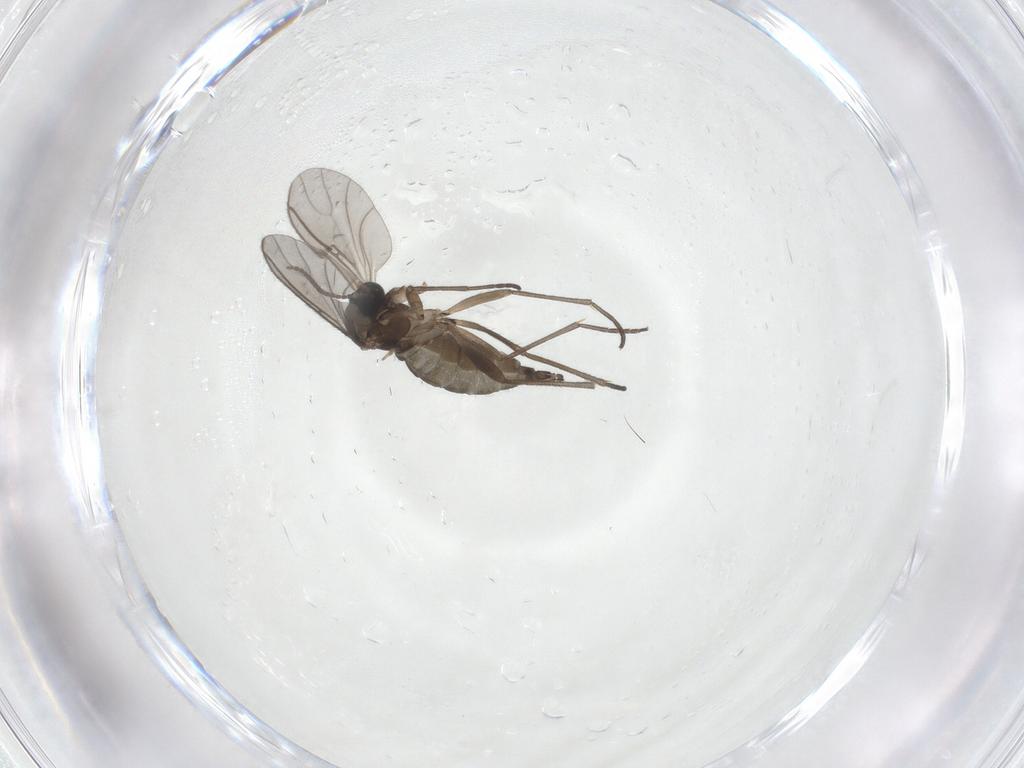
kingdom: Animalia
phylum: Arthropoda
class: Insecta
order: Diptera
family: Sciaridae
